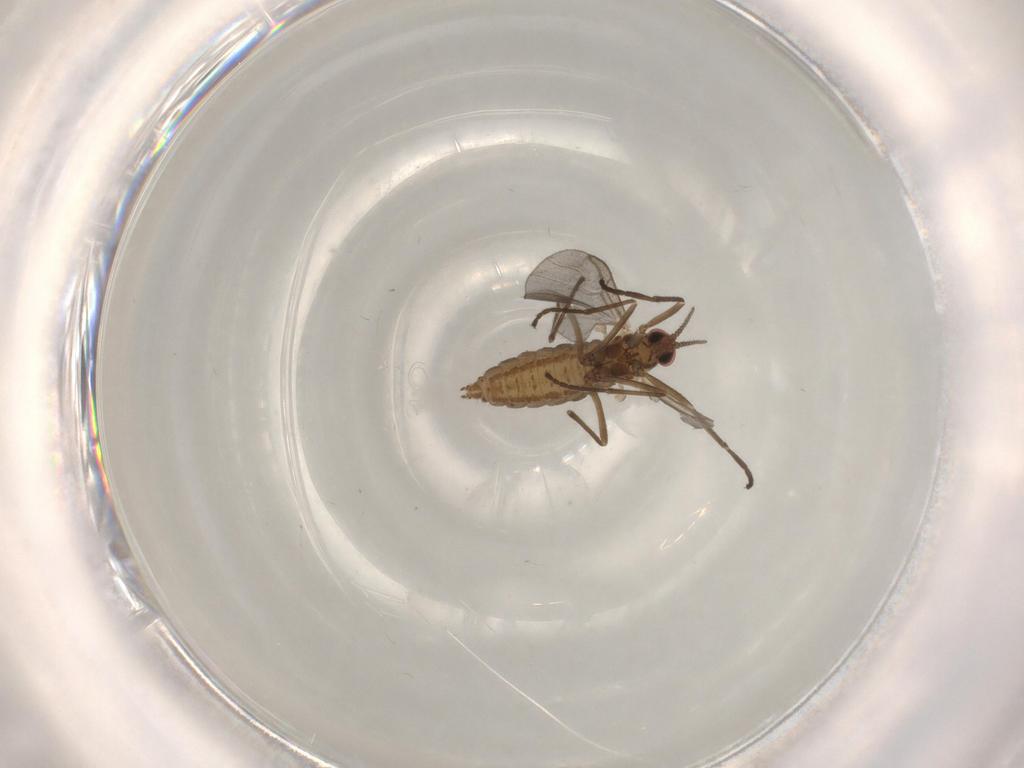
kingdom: Animalia
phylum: Arthropoda
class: Insecta
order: Diptera
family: Cecidomyiidae
